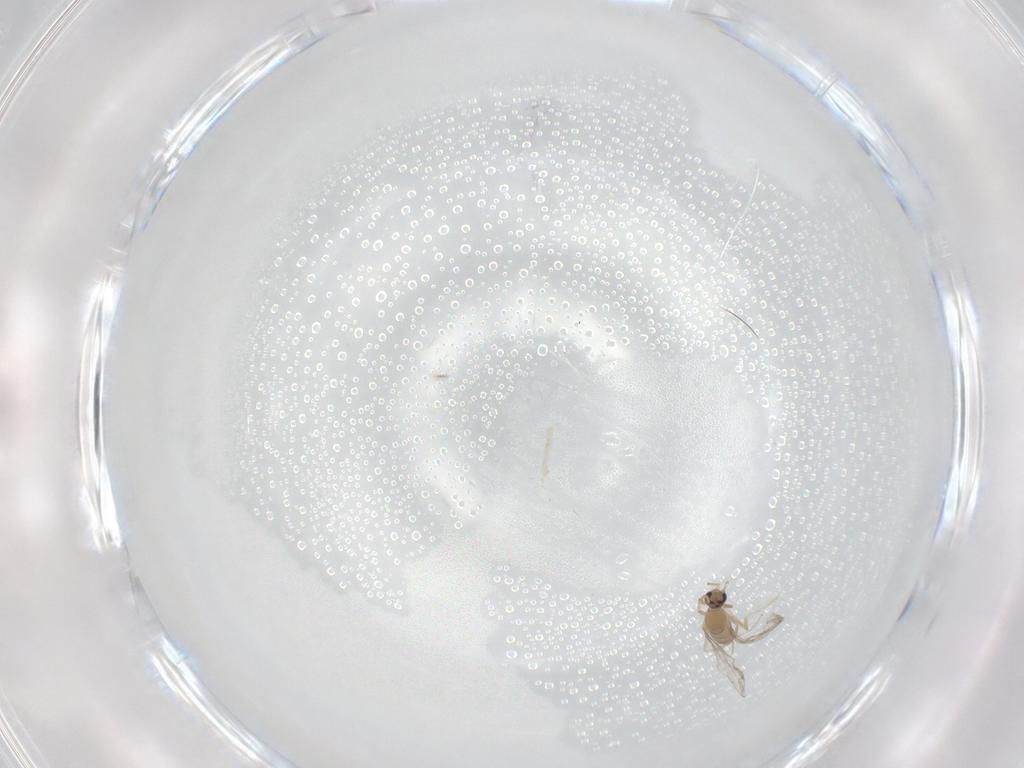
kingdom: Animalia
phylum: Arthropoda
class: Insecta
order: Diptera
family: Cecidomyiidae
